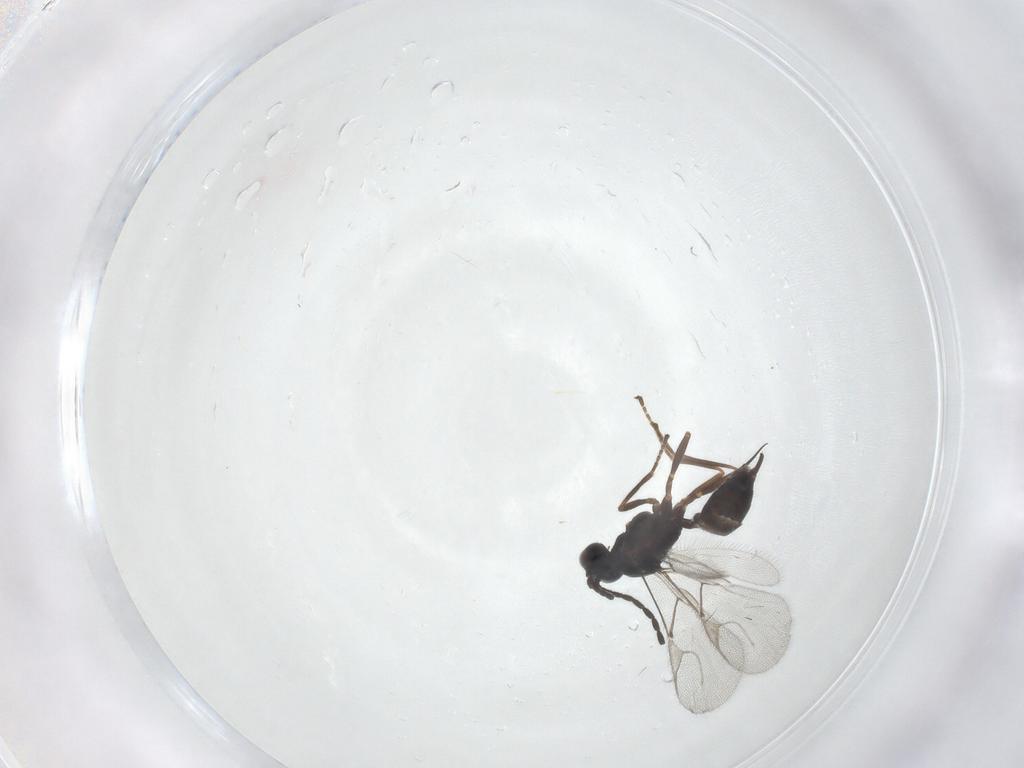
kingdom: Animalia
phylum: Arthropoda
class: Insecta
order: Hymenoptera
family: Braconidae
